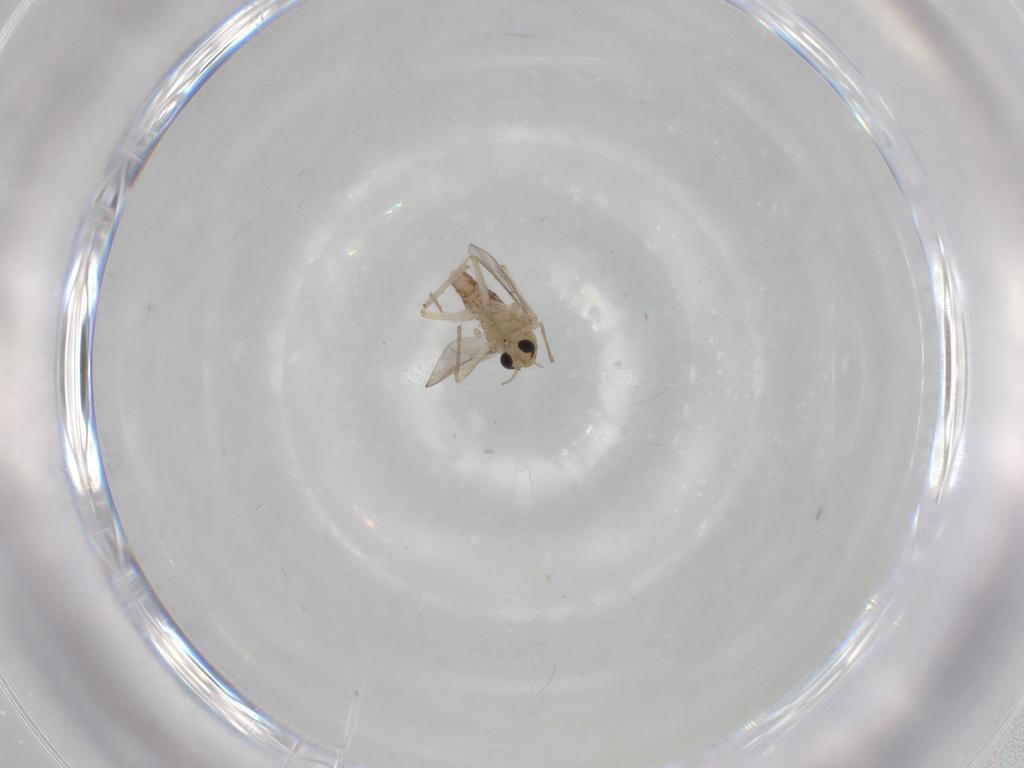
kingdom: Animalia
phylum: Arthropoda
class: Insecta
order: Diptera
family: Chironomidae
